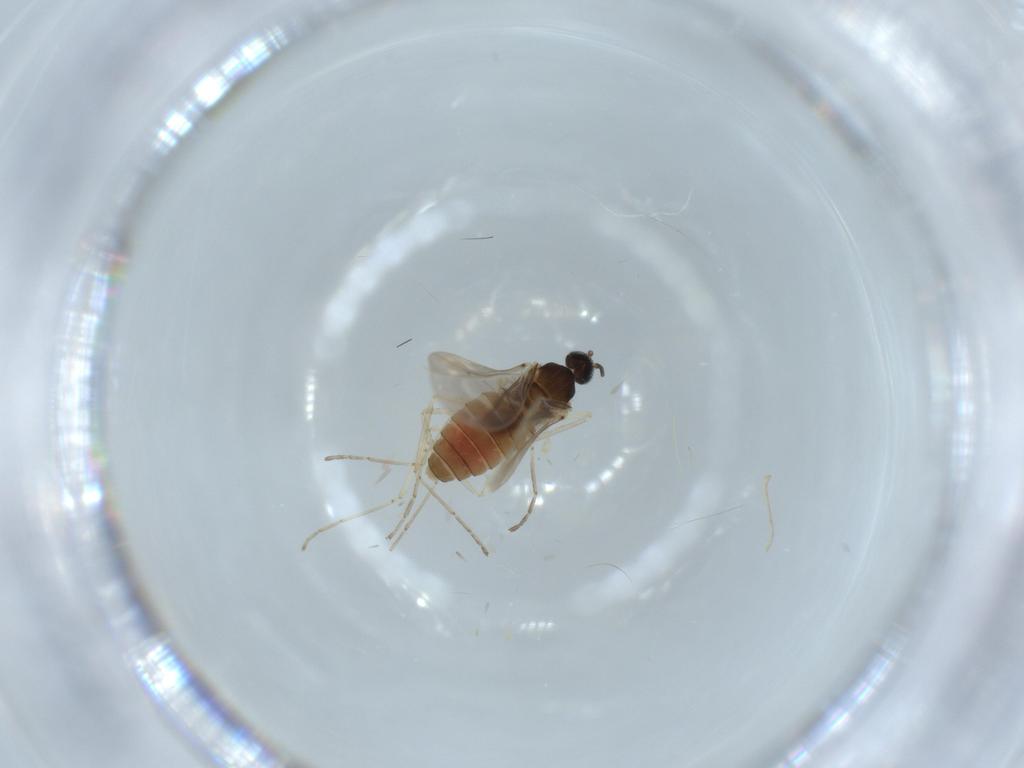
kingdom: Animalia
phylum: Arthropoda
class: Insecta
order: Diptera
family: Cecidomyiidae
